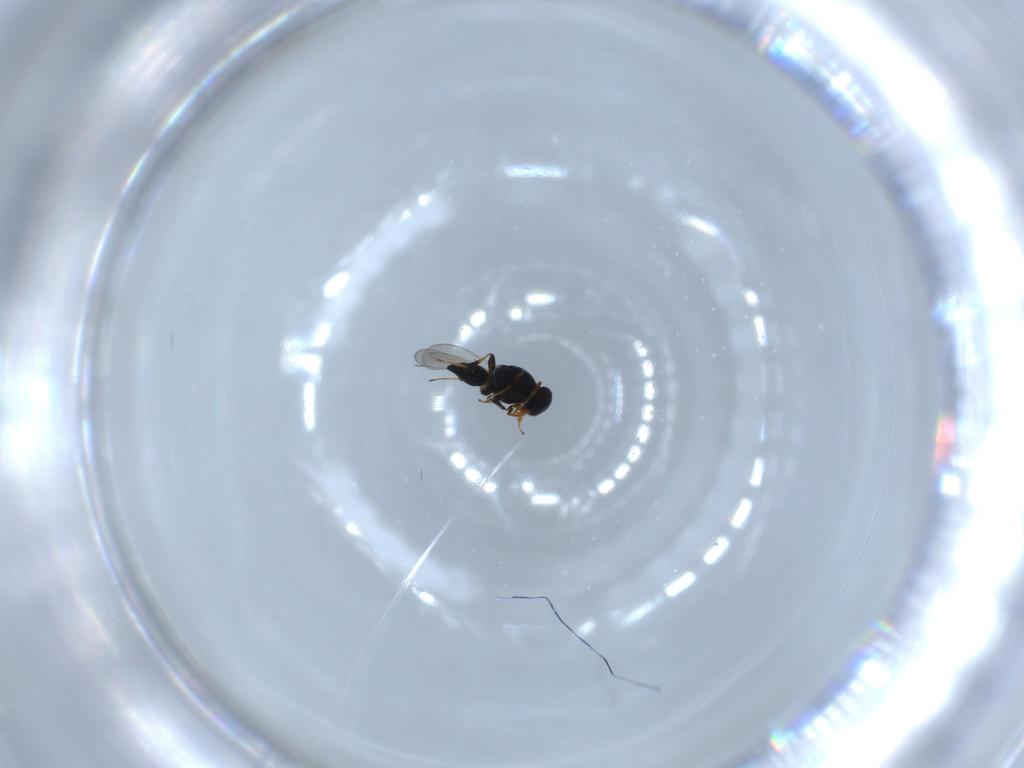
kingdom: Animalia
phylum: Arthropoda
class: Insecta
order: Hymenoptera
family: Platygastridae
